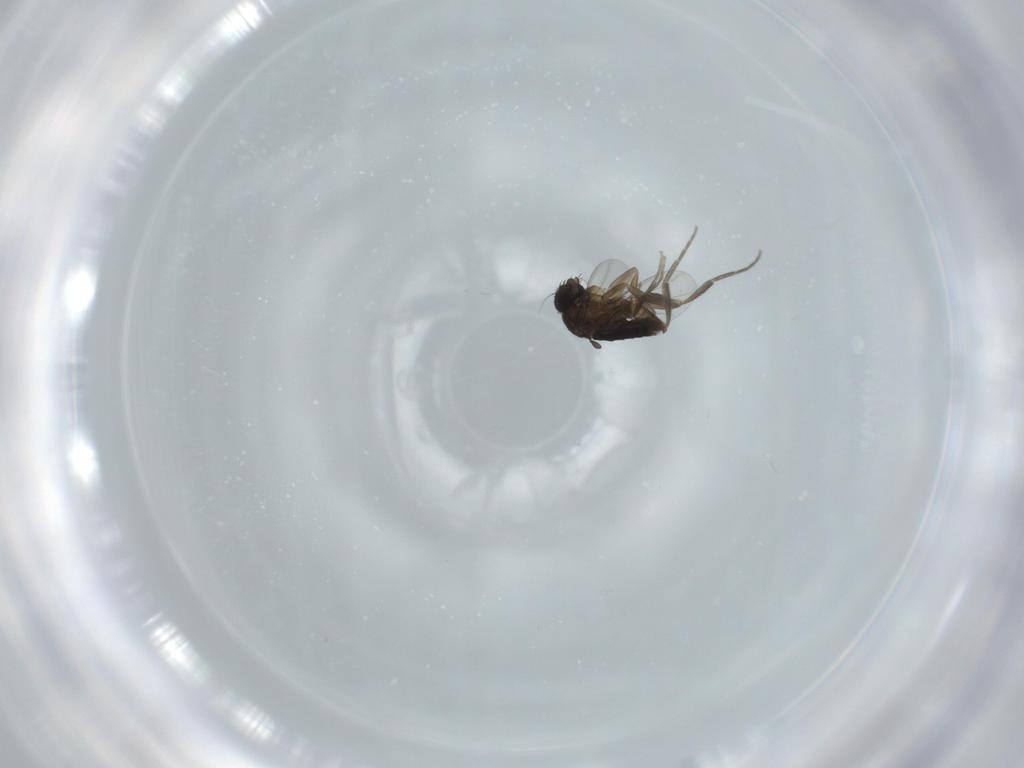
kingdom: Animalia
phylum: Arthropoda
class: Insecta
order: Diptera
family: Phoridae
